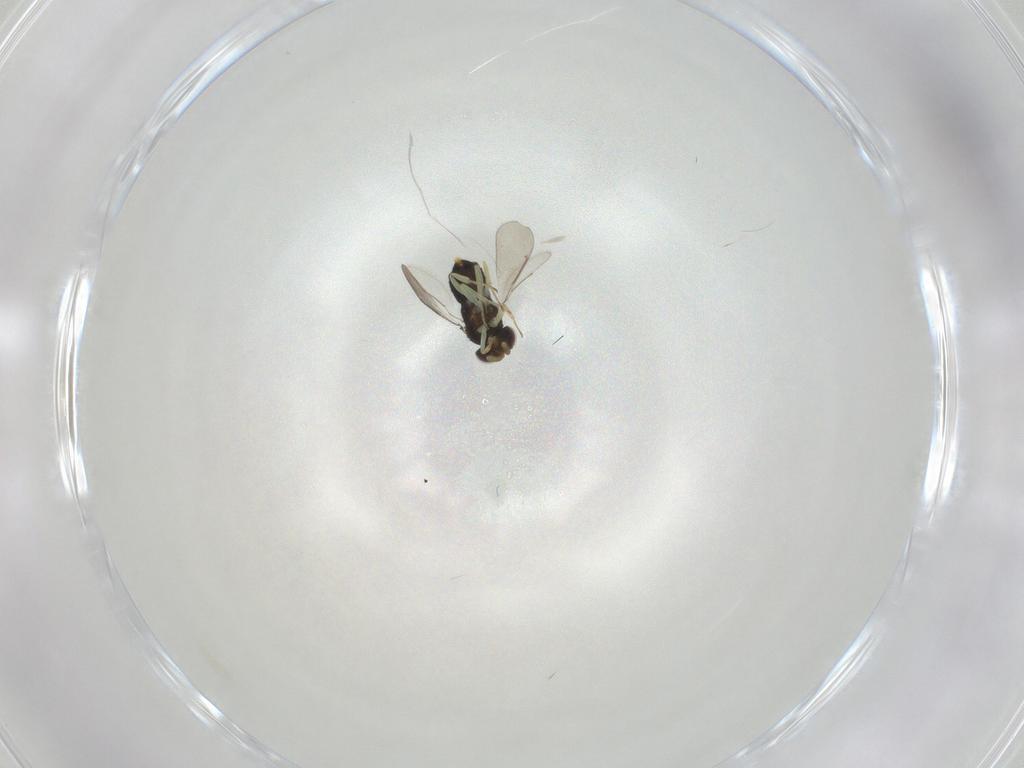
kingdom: Animalia
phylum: Arthropoda
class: Insecta
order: Hymenoptera
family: Aphelinidae
